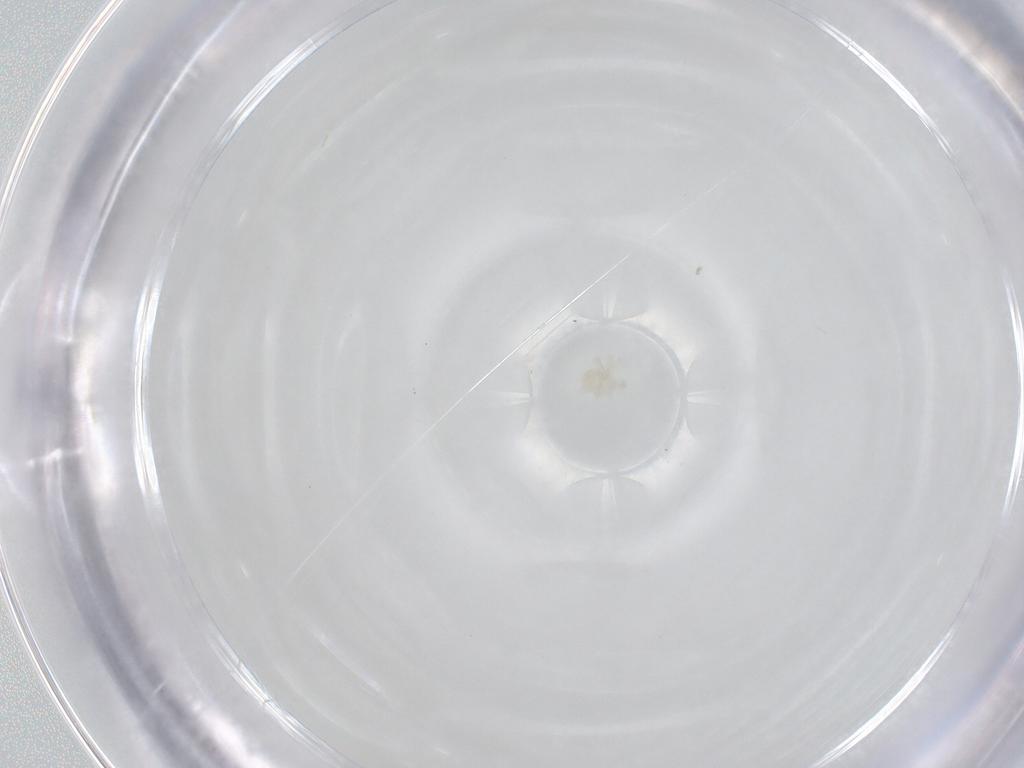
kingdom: Animalia
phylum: Arthropoda
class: Arachnida
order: Trombidiformes
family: Anystidae
